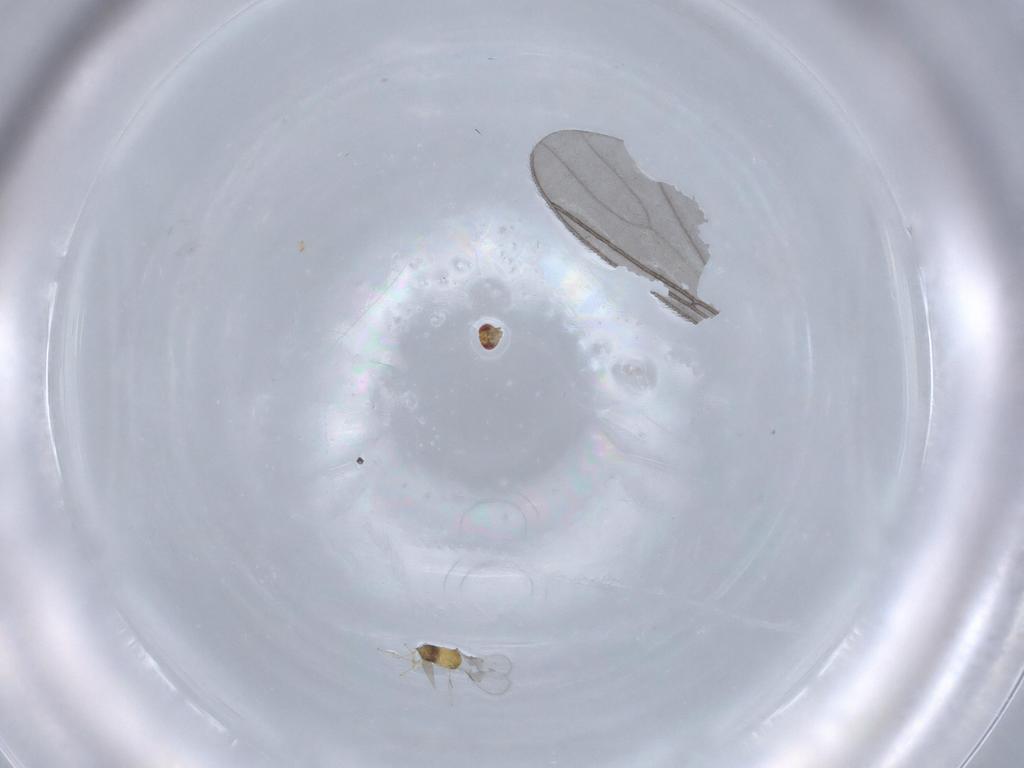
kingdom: Animalia
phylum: Arthropoda
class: Insecta
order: Hymenoptera
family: Trichogrammatidae
